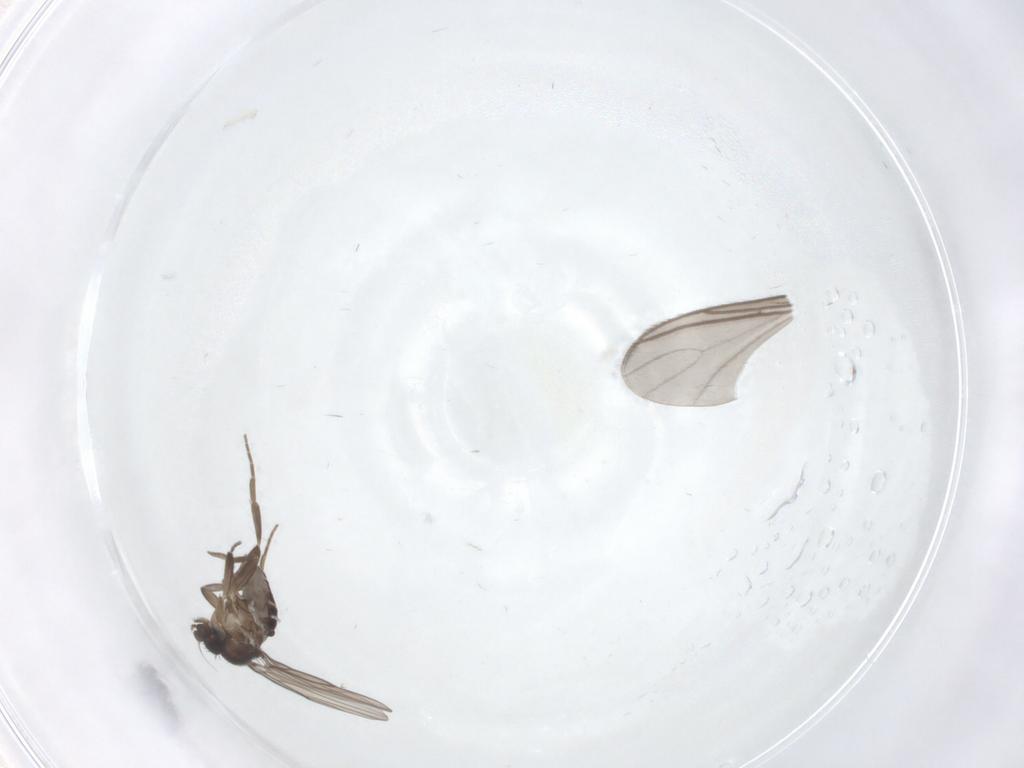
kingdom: Animalia
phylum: Arthropoda
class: Insecta
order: Diptera
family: Sciaridae
